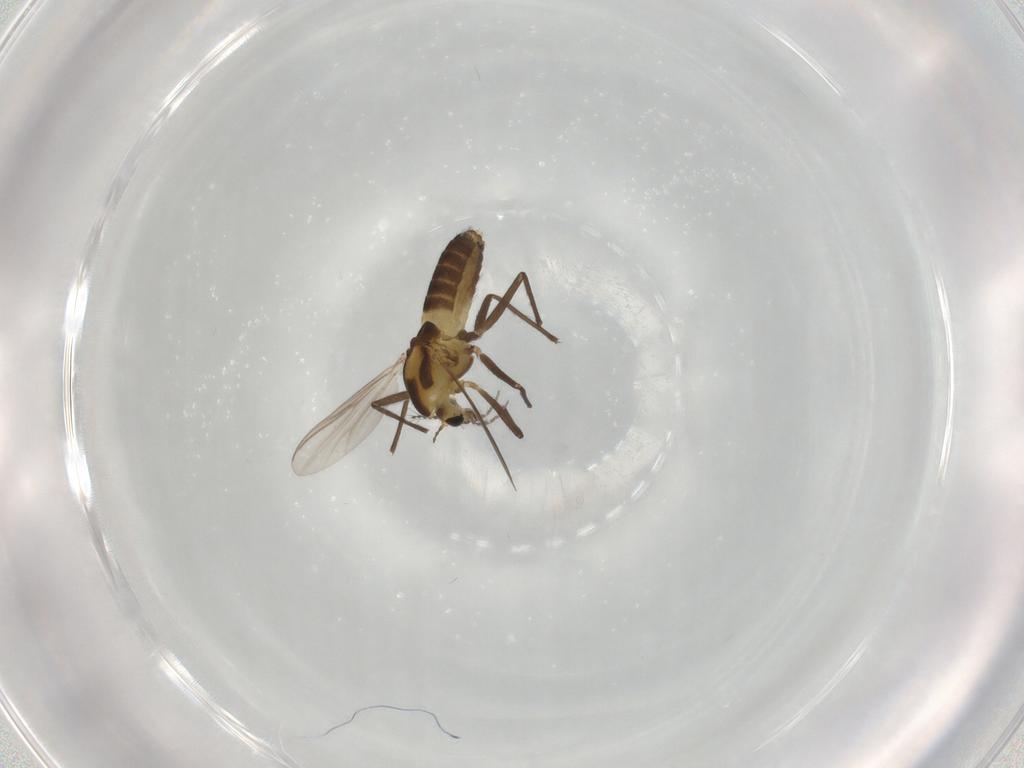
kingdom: Animalia
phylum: Arthropoda
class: Insecta
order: Diptera
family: Chironomidae
